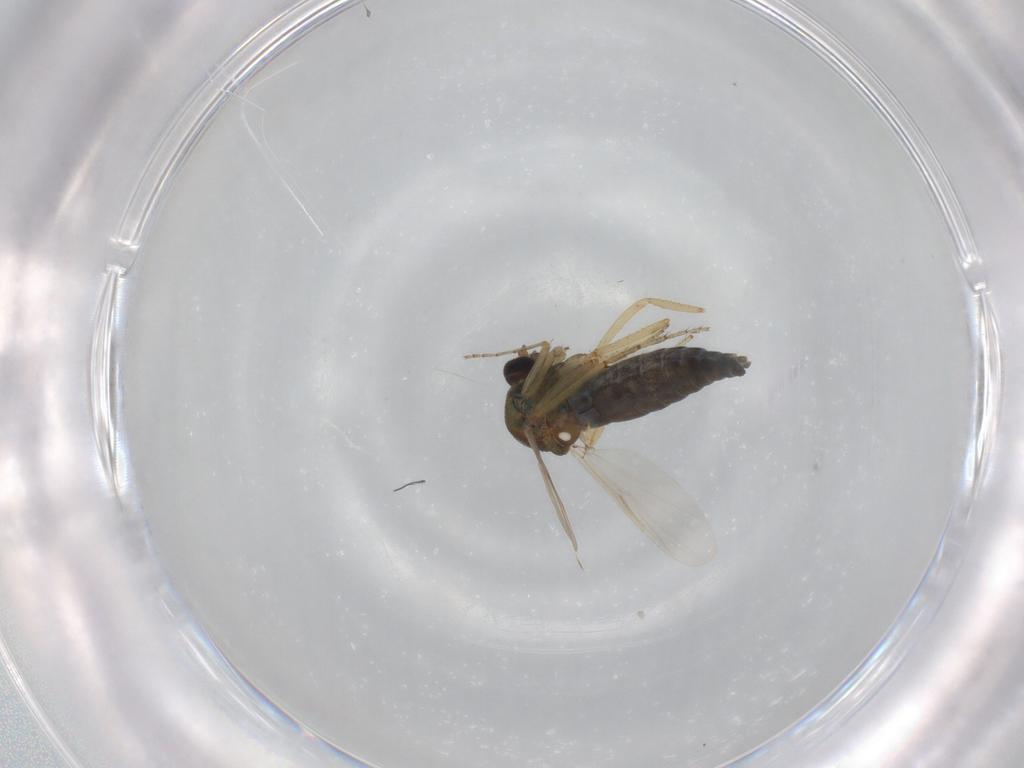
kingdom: Animalia
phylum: Arthropoda
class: Insecta
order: Diptera
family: Ceratopogonidae
